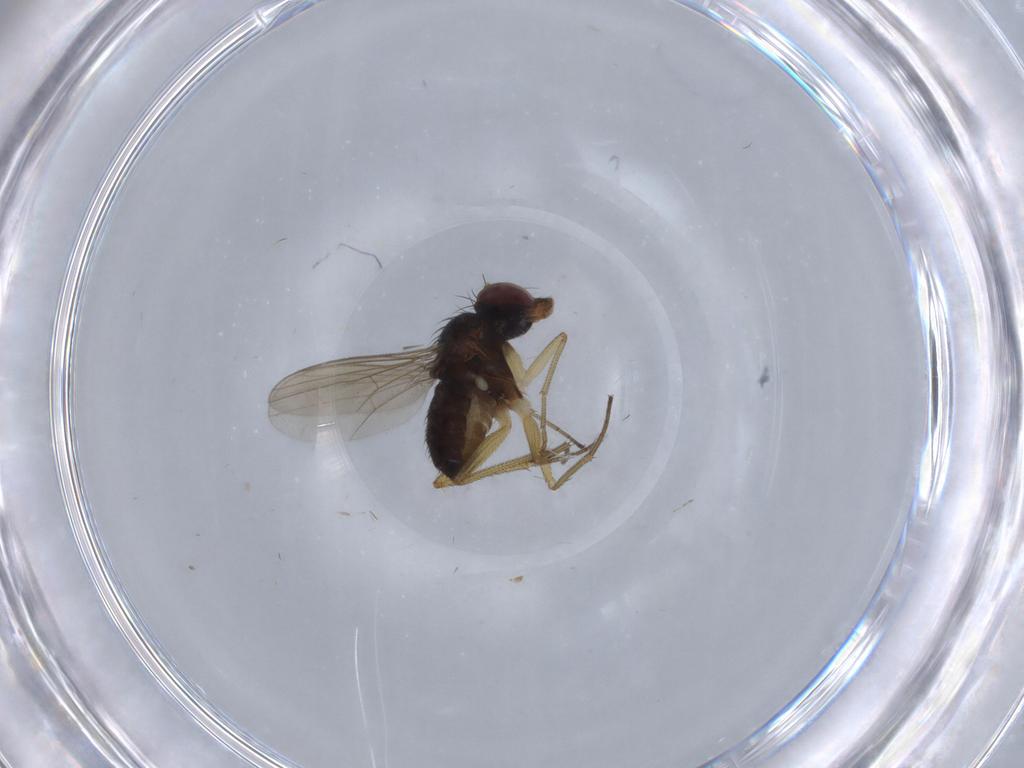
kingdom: Animalia
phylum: Arthropoda
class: Insecta
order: Diptera
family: Dolichopodidae
